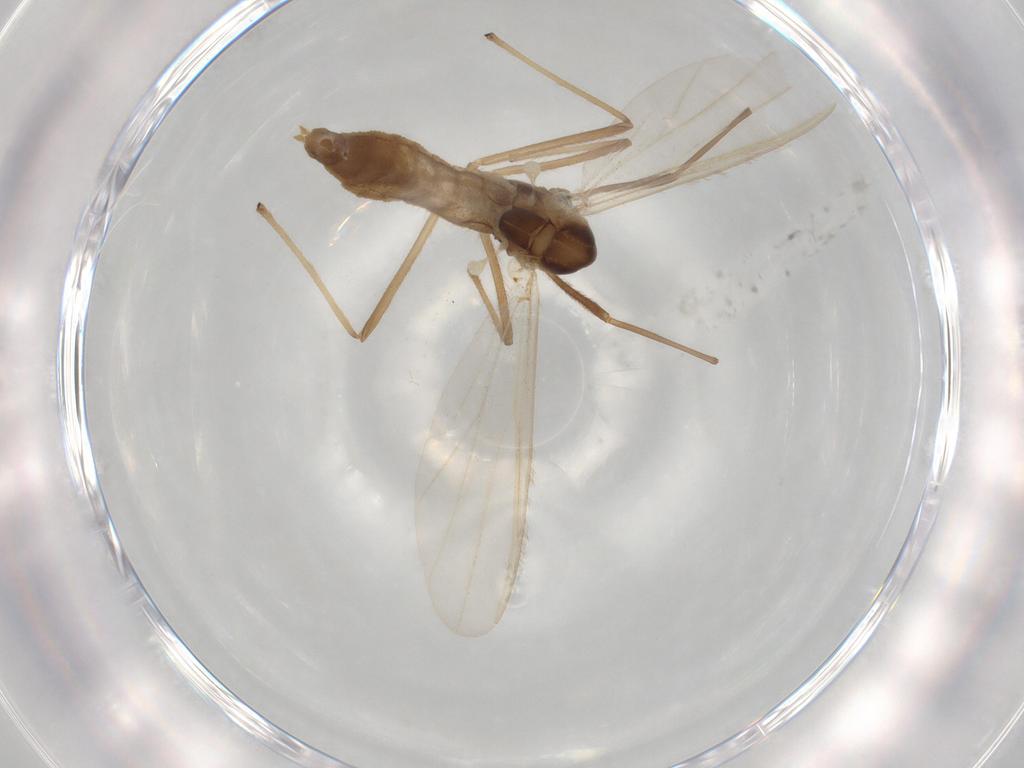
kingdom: Animalia
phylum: Arthropoda
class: Insecta
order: Diptera
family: Chironomidae
